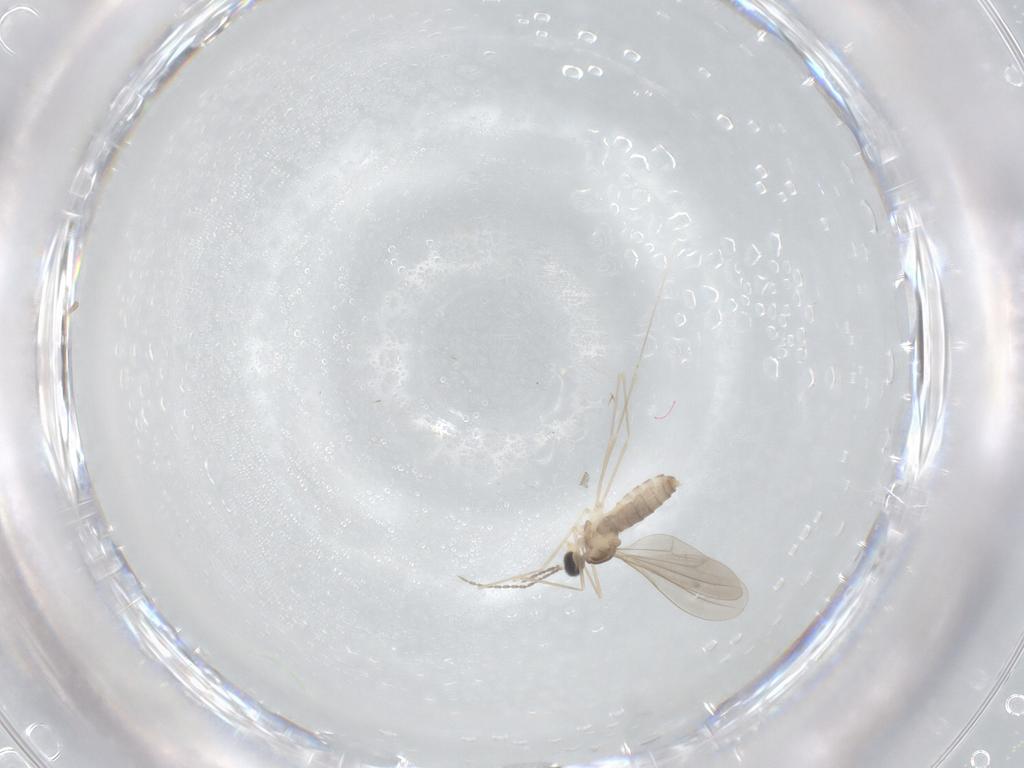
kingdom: Animalia
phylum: Arthropoda
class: Insecta
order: Diptera
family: Cecidomyiidae
